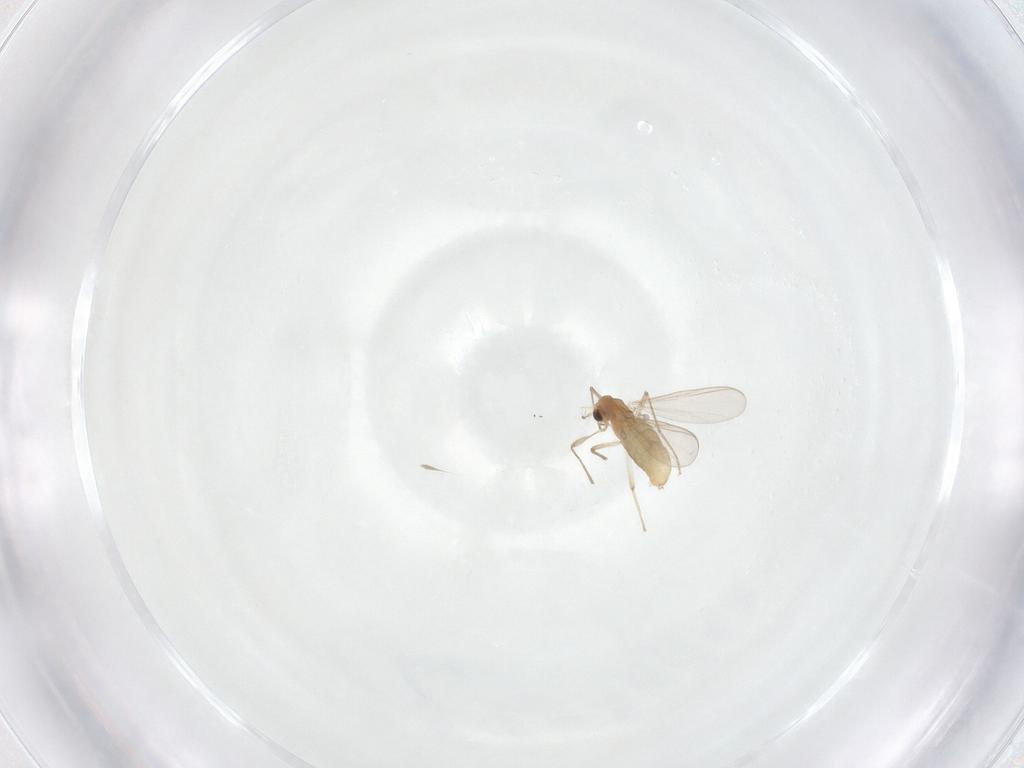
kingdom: Animalia
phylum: Arthropoda
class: Insecta
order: Diptera
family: Chironomidae
